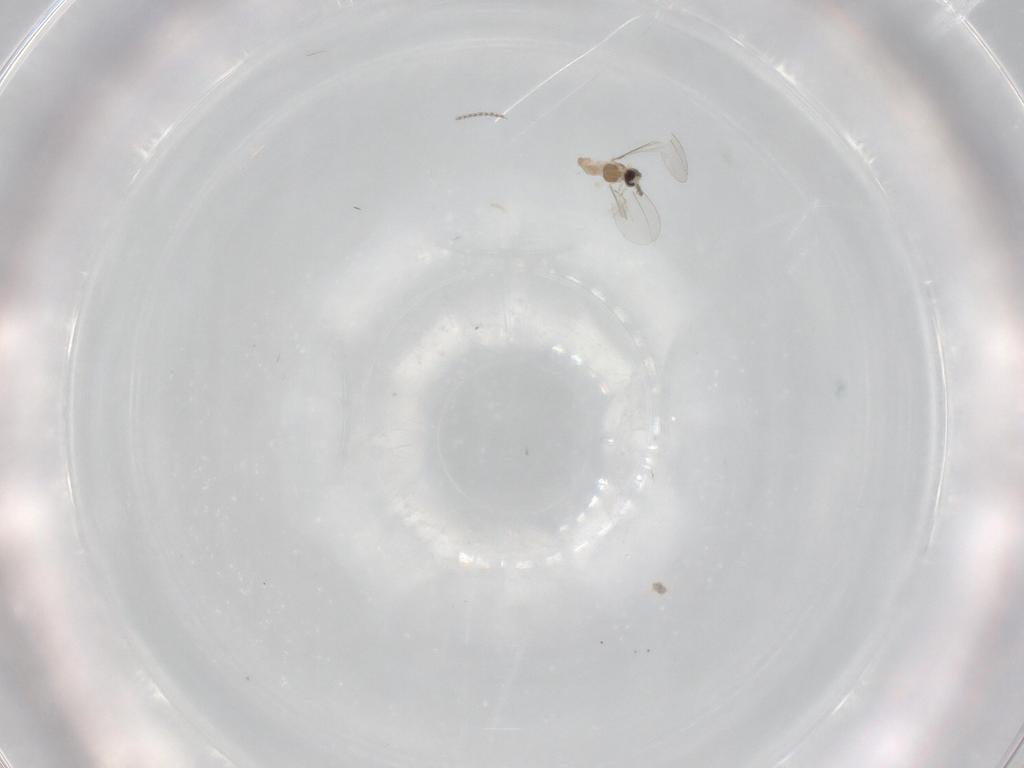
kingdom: Animalia
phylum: Arthropoda
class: Insecta
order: Diptera
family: Cecidomyiidae
